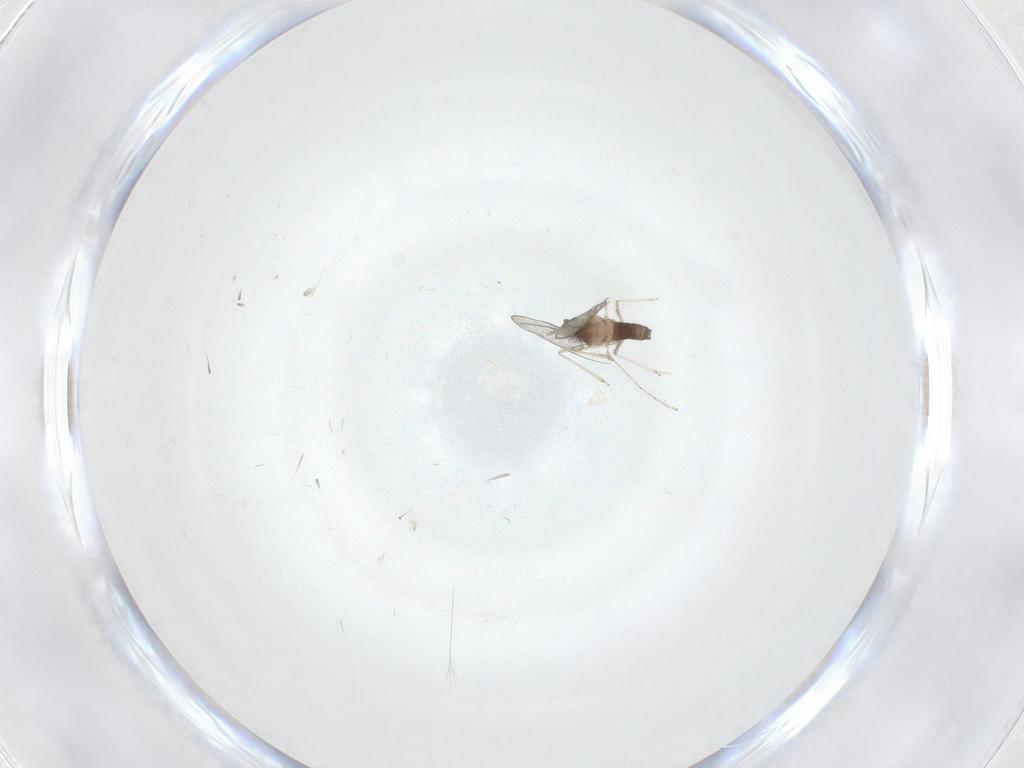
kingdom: Animalia
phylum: Arthropoda
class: Insecta
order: Diptera
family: Cecidomyiidae
